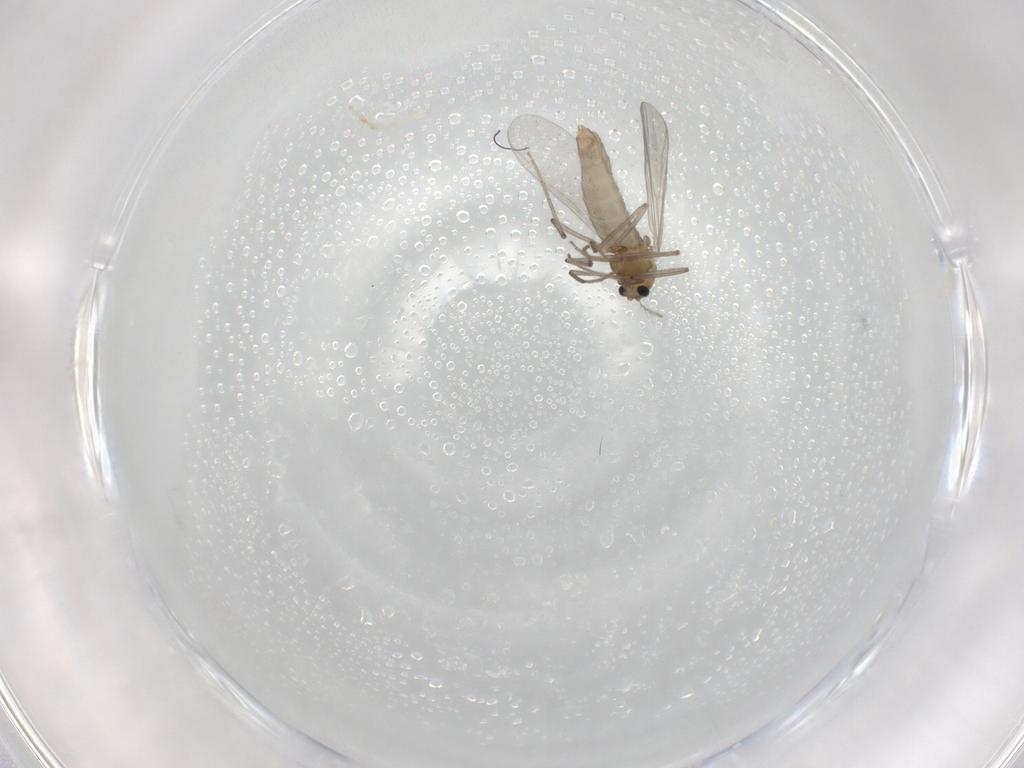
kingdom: Animalia
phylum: Arthropoda
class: Insecta
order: Diptera
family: Sciaridae
